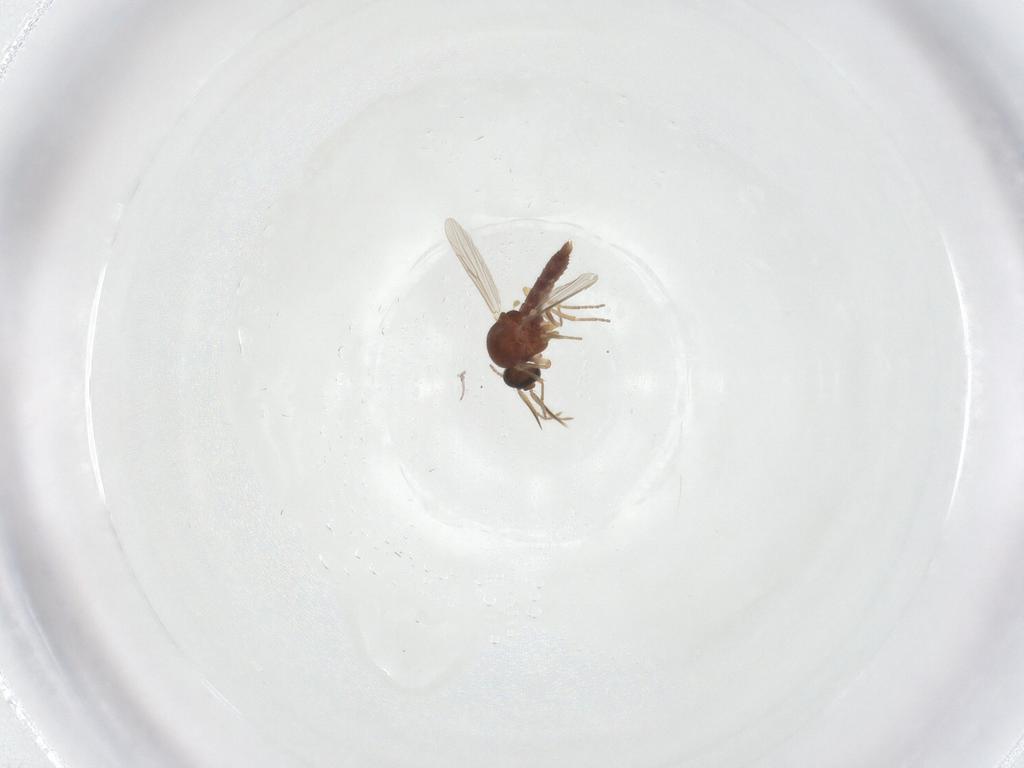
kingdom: Animalia
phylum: Arthropoda
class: Insecta
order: Diptera
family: Ceratopogonidae
